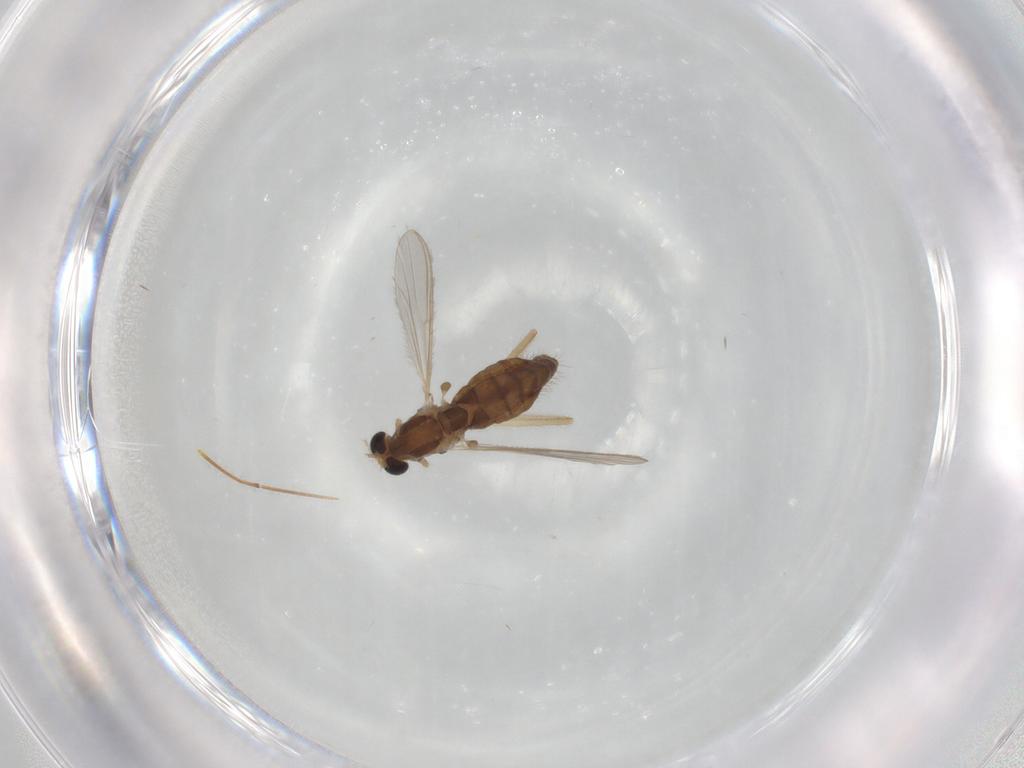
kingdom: Animalia
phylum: Arthropoda
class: Insecta
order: Diptera
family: Chironomidae
